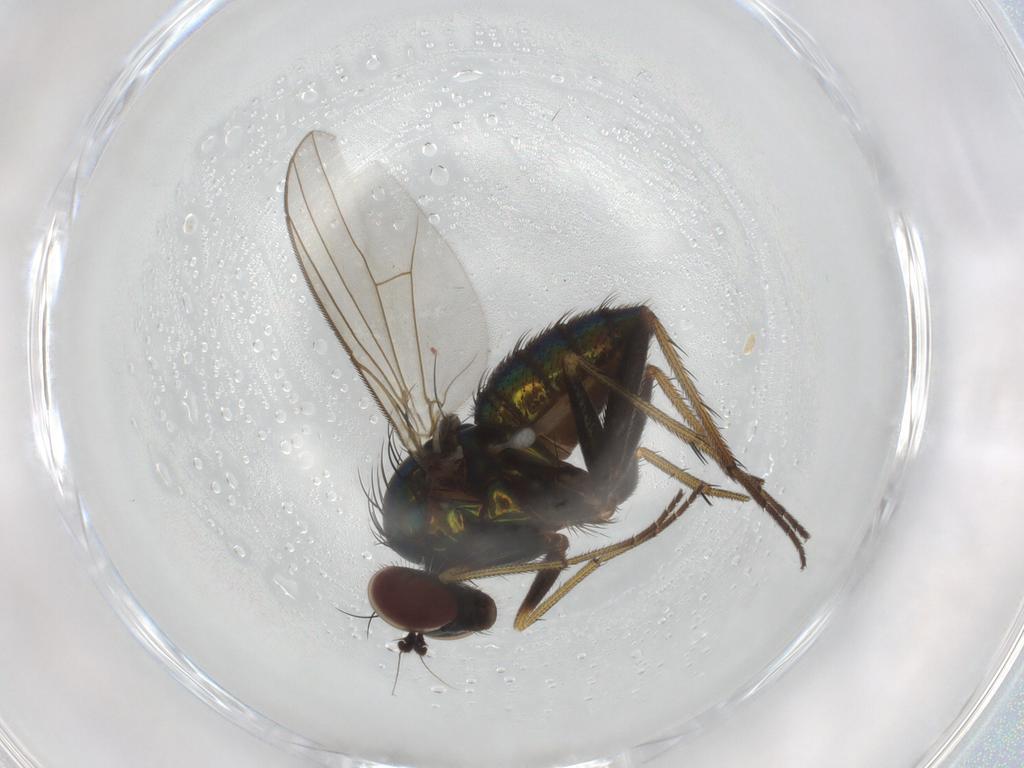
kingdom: Animalia
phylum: Arthropoda
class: Insecta
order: Diptera
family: Dolichopodidae
